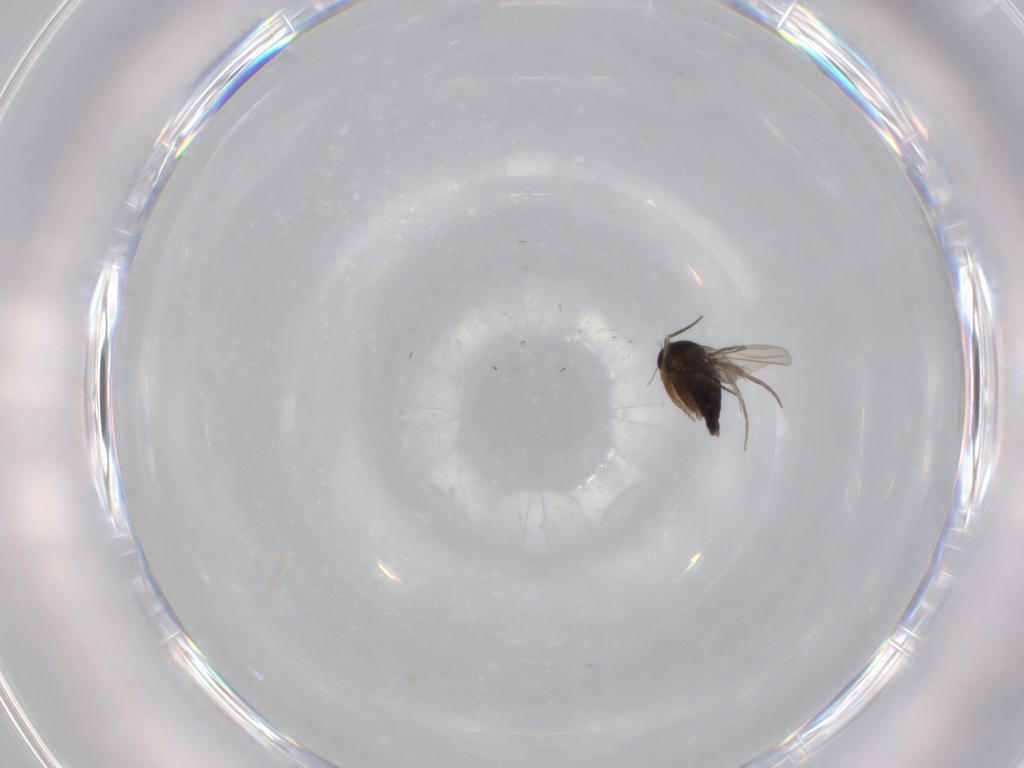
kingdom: Animalia
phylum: Arthropoda
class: Insecta
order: Diptera
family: Phoridae
